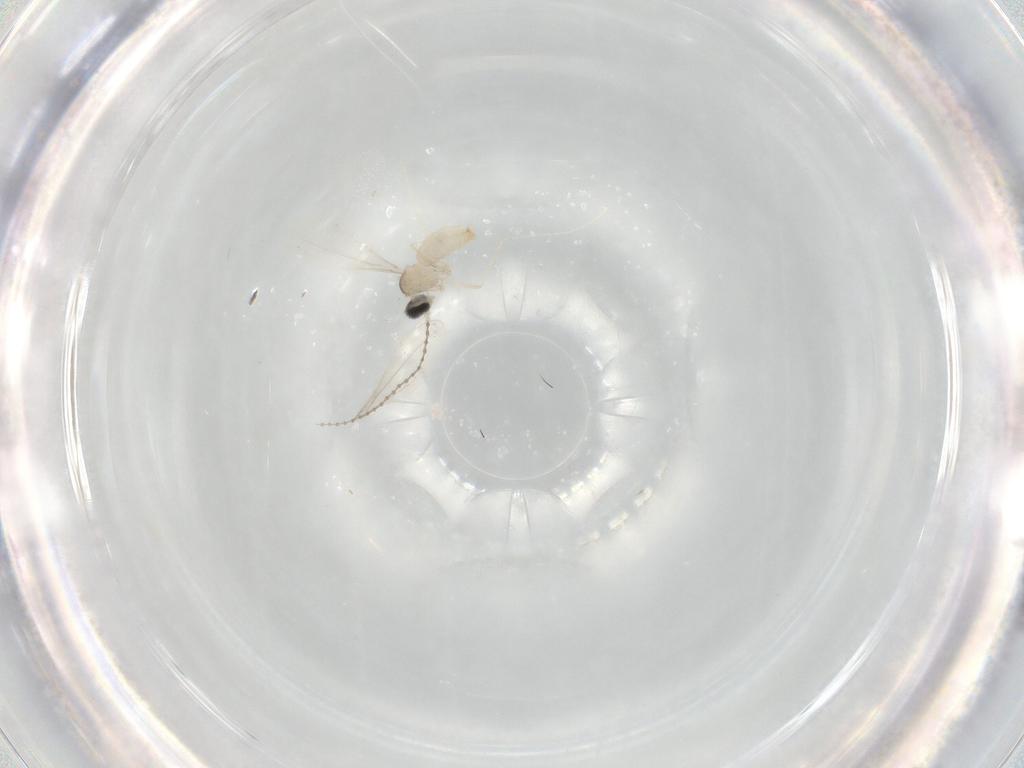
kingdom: Animalia
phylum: Arthropoda
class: Insecta
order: Diptera
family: Cecidomyiidae
